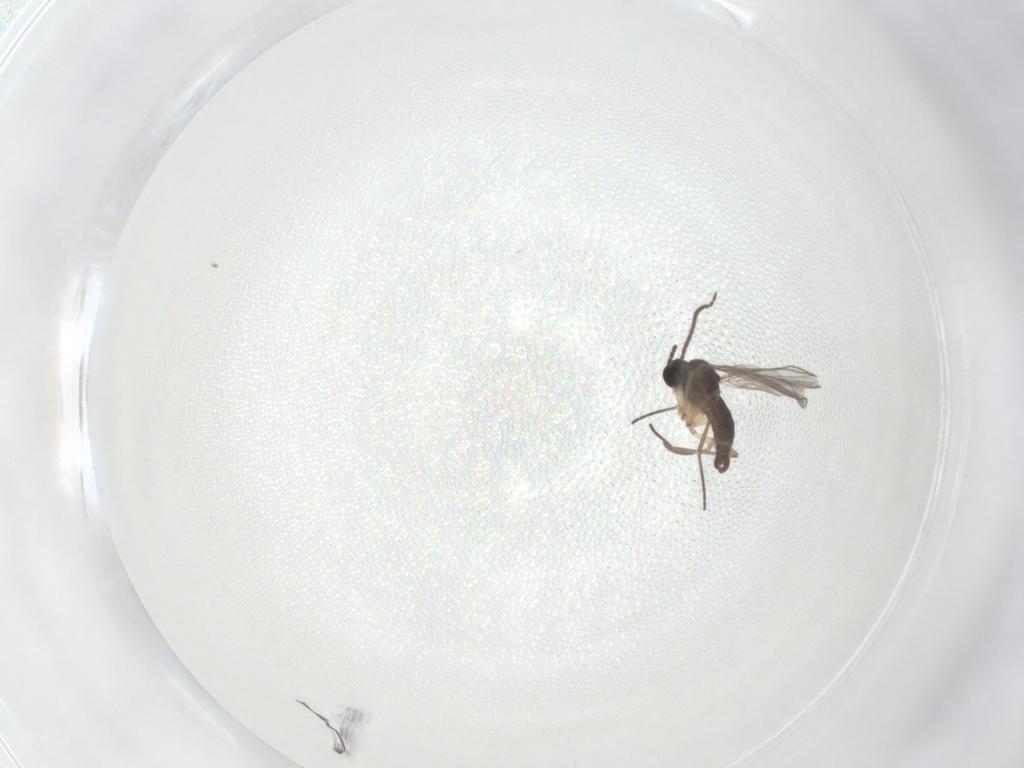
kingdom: Animalia
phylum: Arthropoda
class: Insecta
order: Diptera
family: Sciaridae
